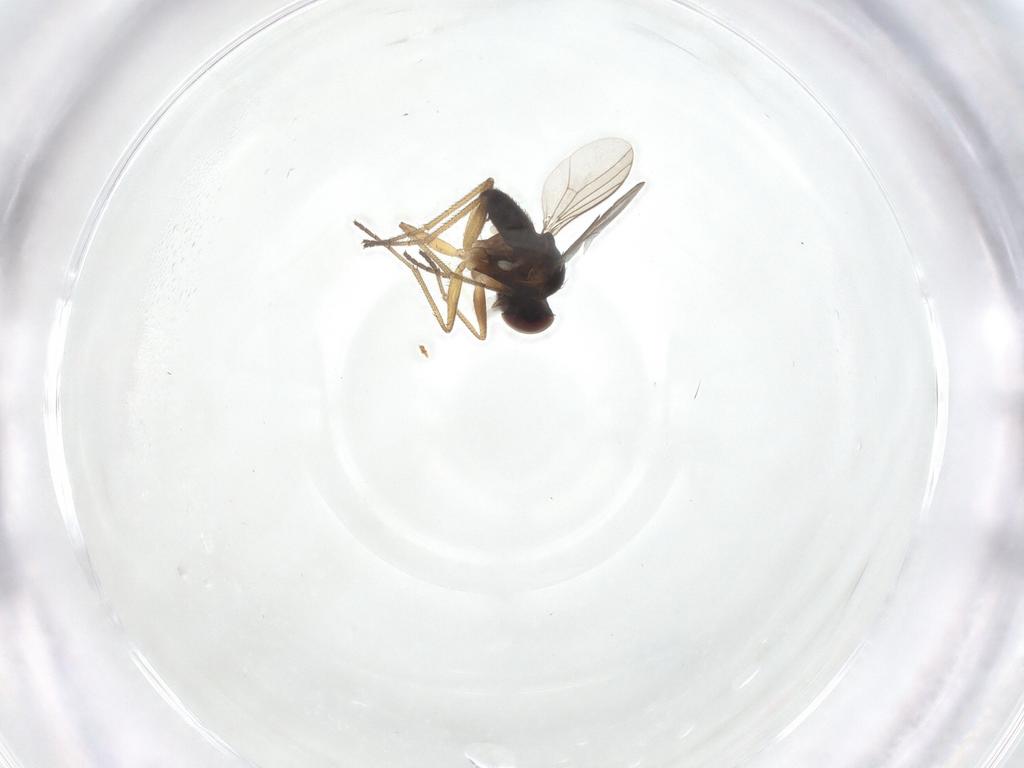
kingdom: Animalia
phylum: Arthropoda
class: Insecta
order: Diptera
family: Dolichopodidae
